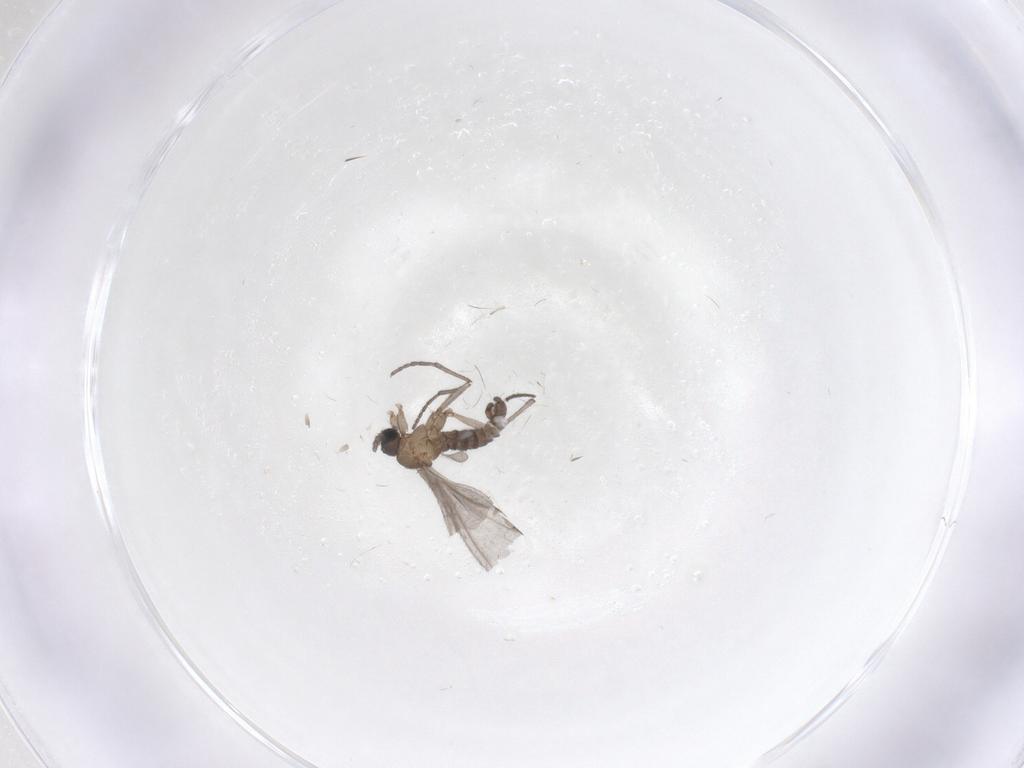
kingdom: Animalia
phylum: Arthropoda
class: Insecta
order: Diptera
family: Sciaridae
